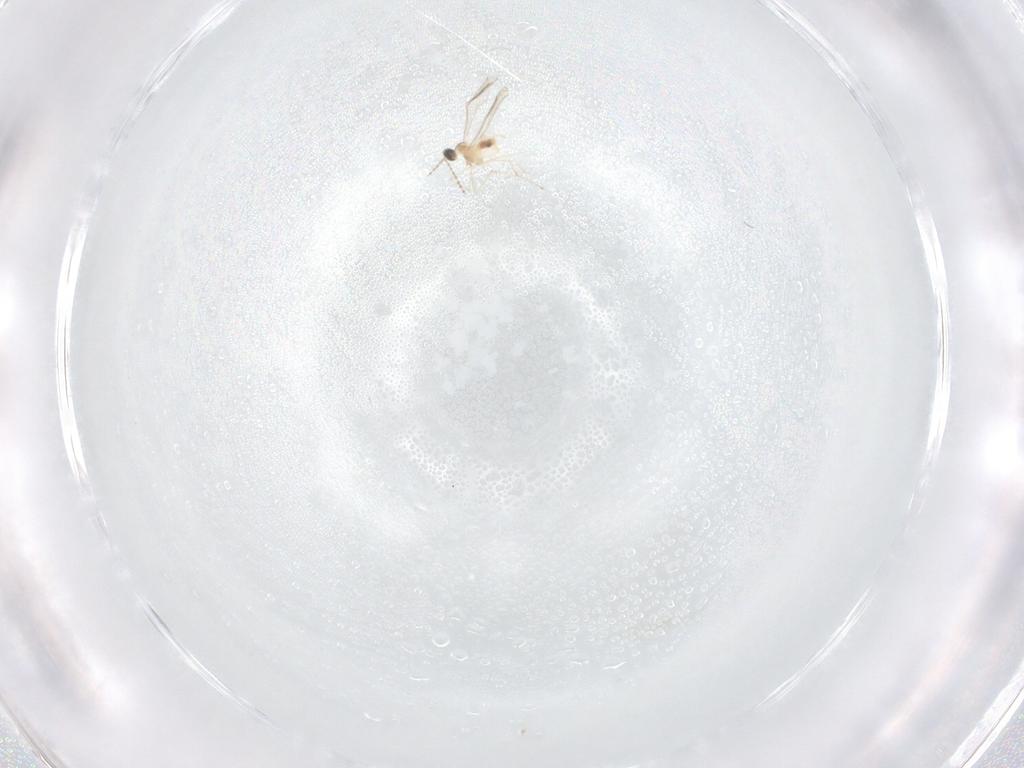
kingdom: Animalia
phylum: Arthropoda
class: Insecta
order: Diptera
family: Cecidomyiidae
